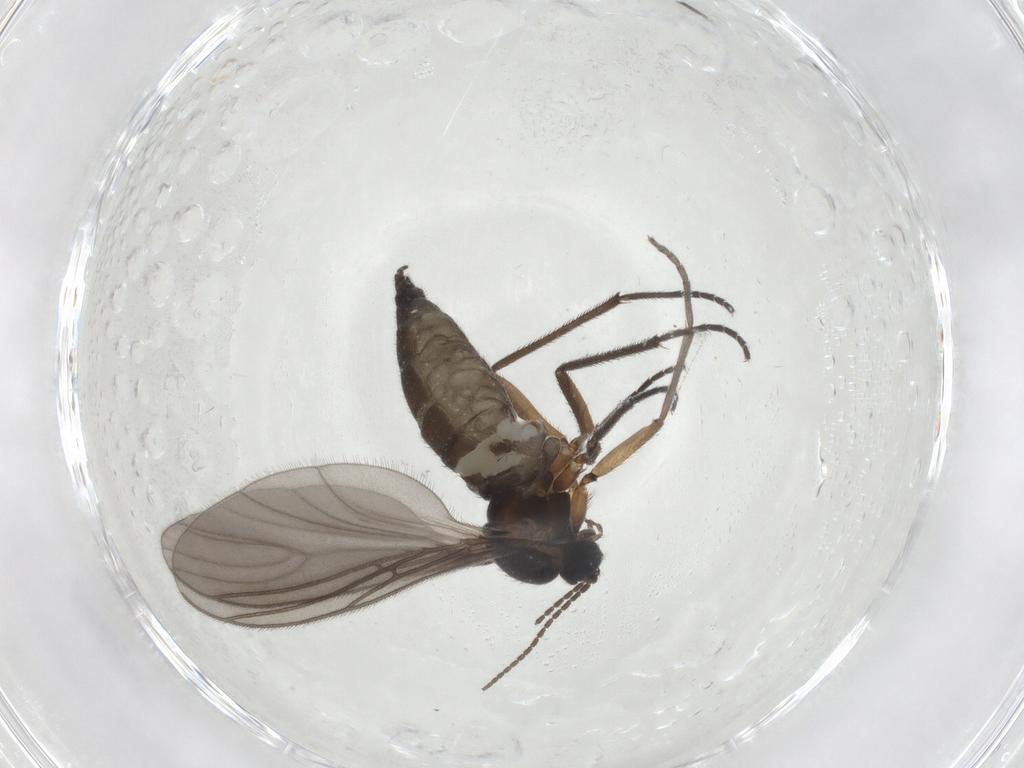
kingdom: Animalia
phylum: Arthropoda
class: Insecta
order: Diptera
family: Sciaridae
